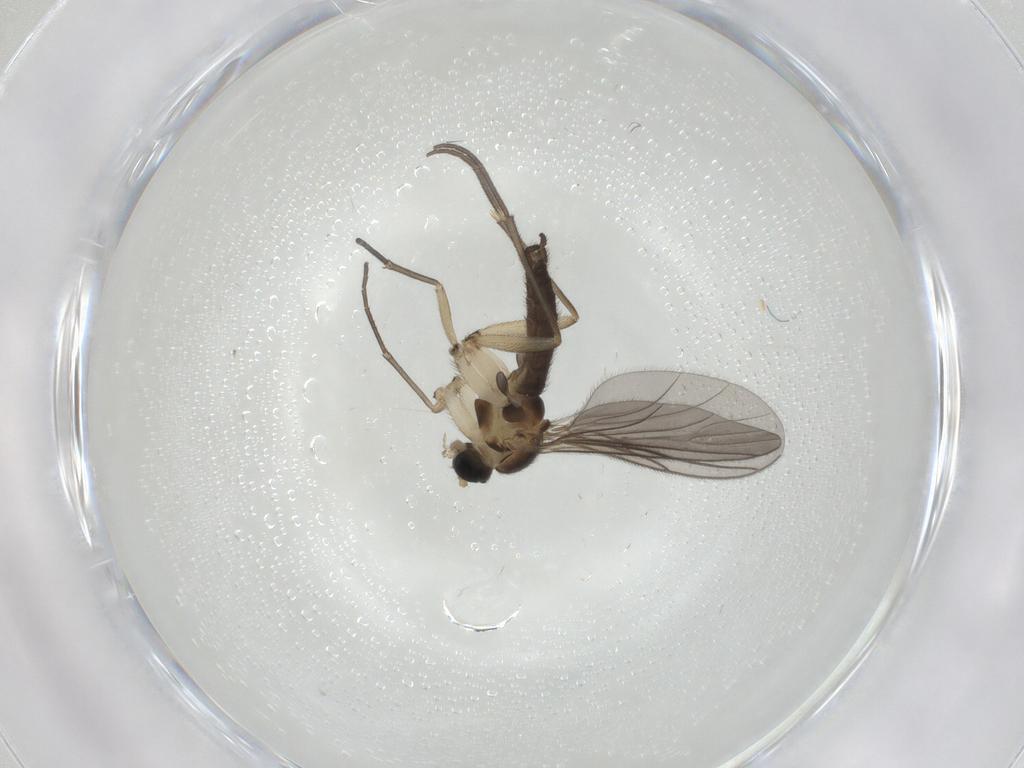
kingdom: Animalia
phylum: Arthropoda
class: Insecta
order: Diptera
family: Sciaridae
